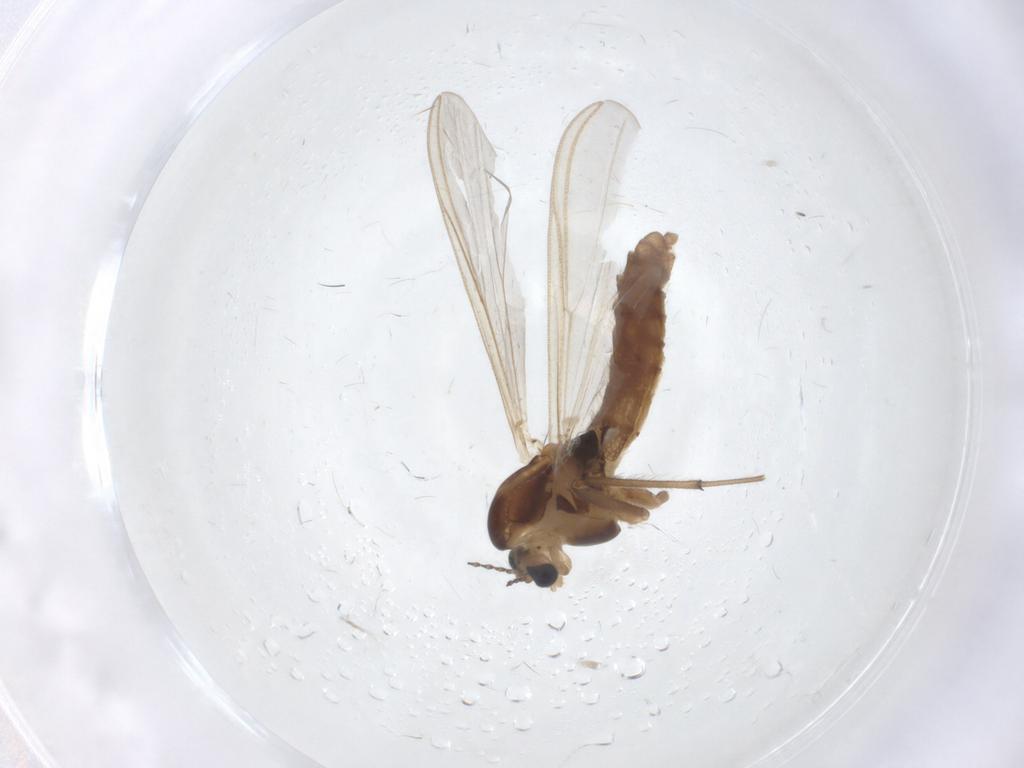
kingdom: Animalia
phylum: Arthropoda
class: Insecta
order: Diptera
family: Chironomidae
